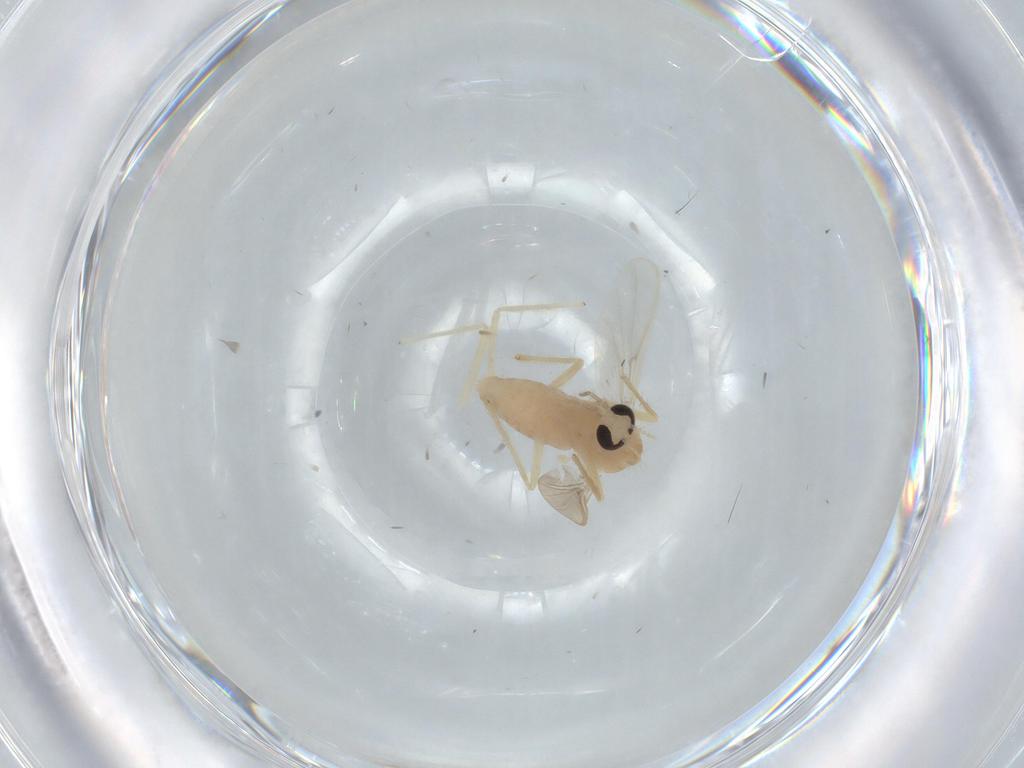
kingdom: Animalia
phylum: Arthropoda
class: Insecta
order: Diptera
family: Chironomidae
